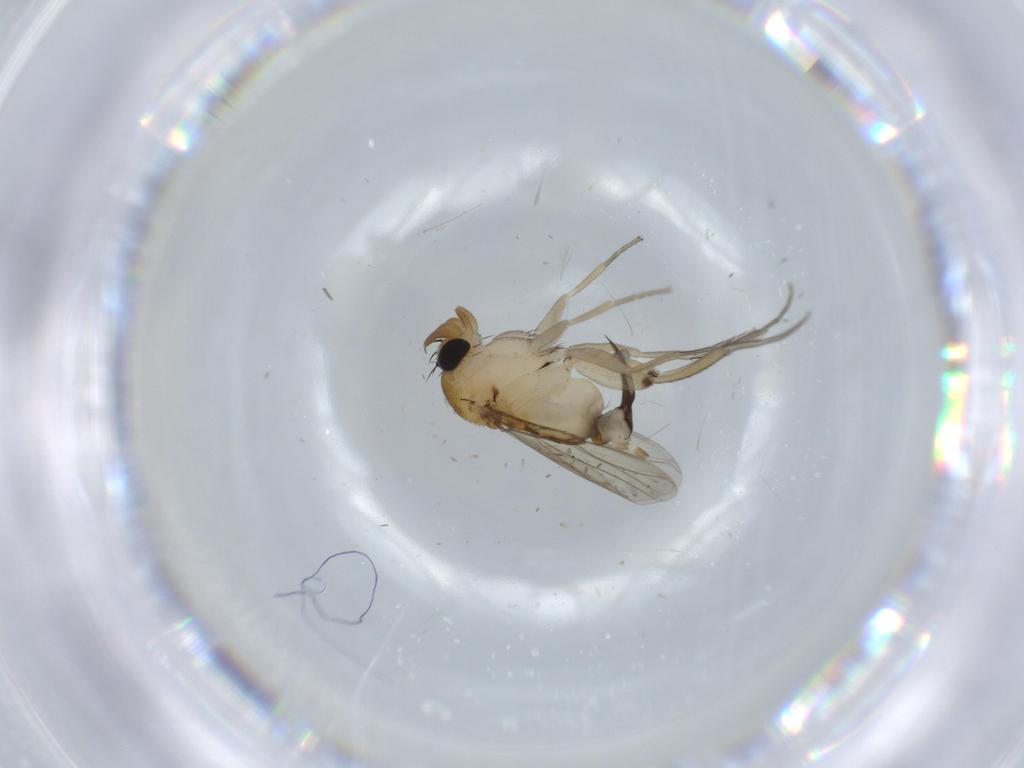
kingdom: Animalia
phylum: Arthropoda
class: Insecta
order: Diptera
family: Phoridae
